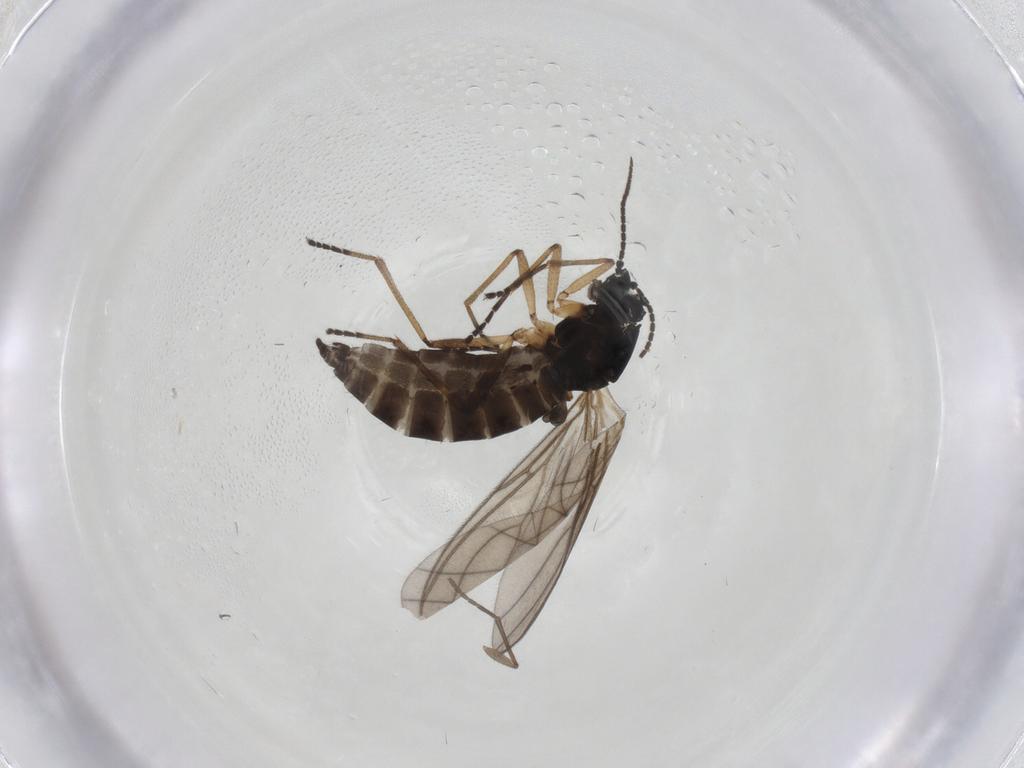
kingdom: Animalia
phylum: Arthropoda
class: Insecta
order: Diptera
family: Sciaridae
